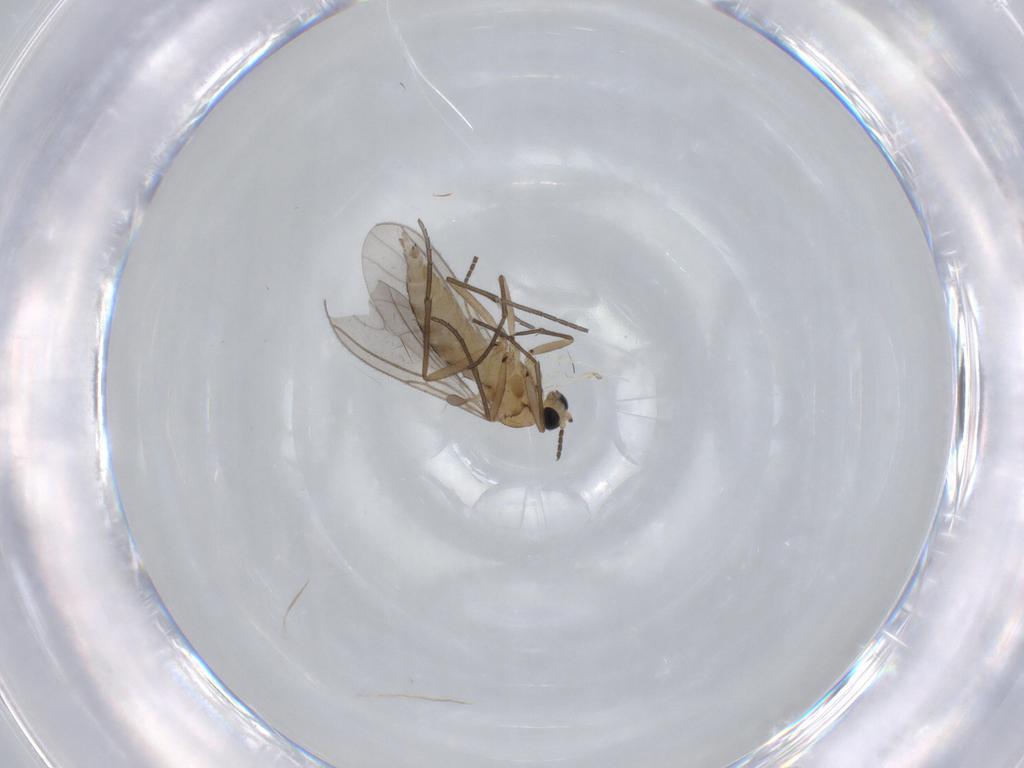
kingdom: Animalia
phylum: Arthropoda
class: Insecta
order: Diptera
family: Sciaridae
